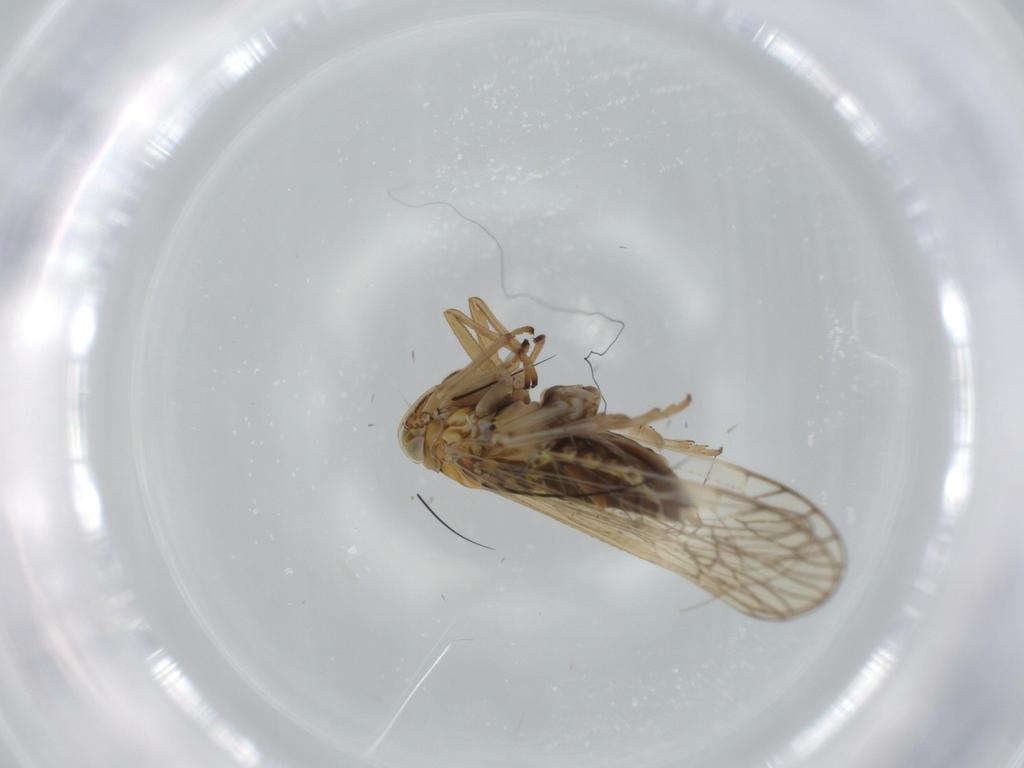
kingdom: Animalia
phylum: Arthropoda
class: Insecta
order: Hemiptera
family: Delphacidae
